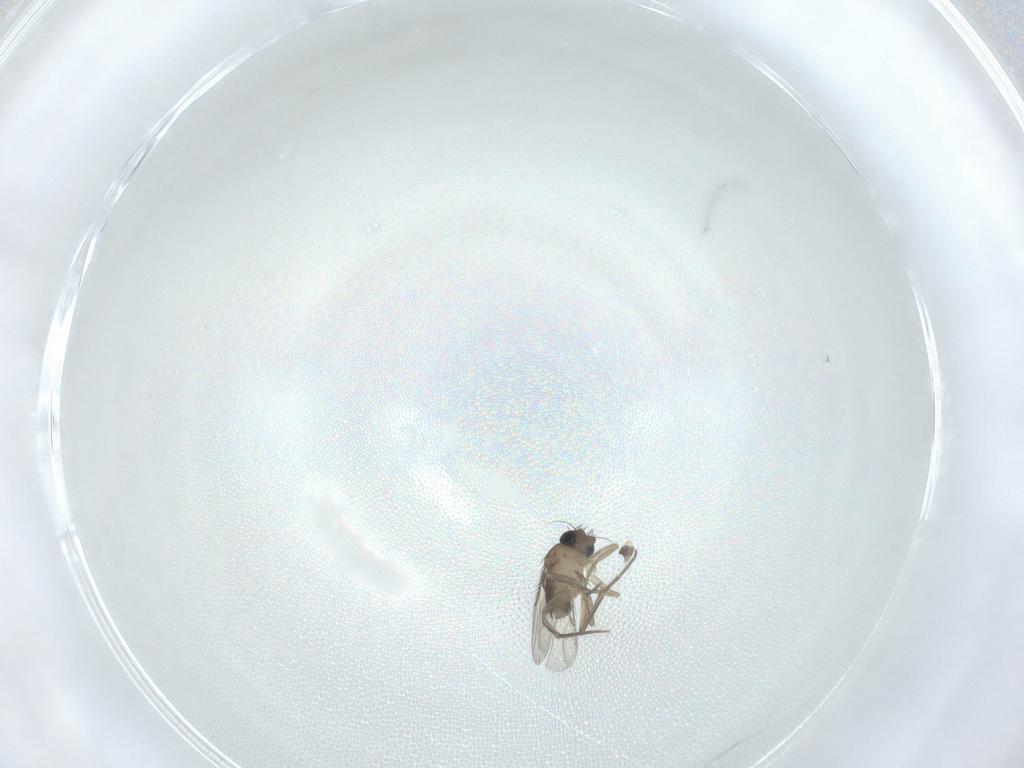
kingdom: Animalia
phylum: Arthropoda
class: Insecta
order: Diptera
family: Phoridae
